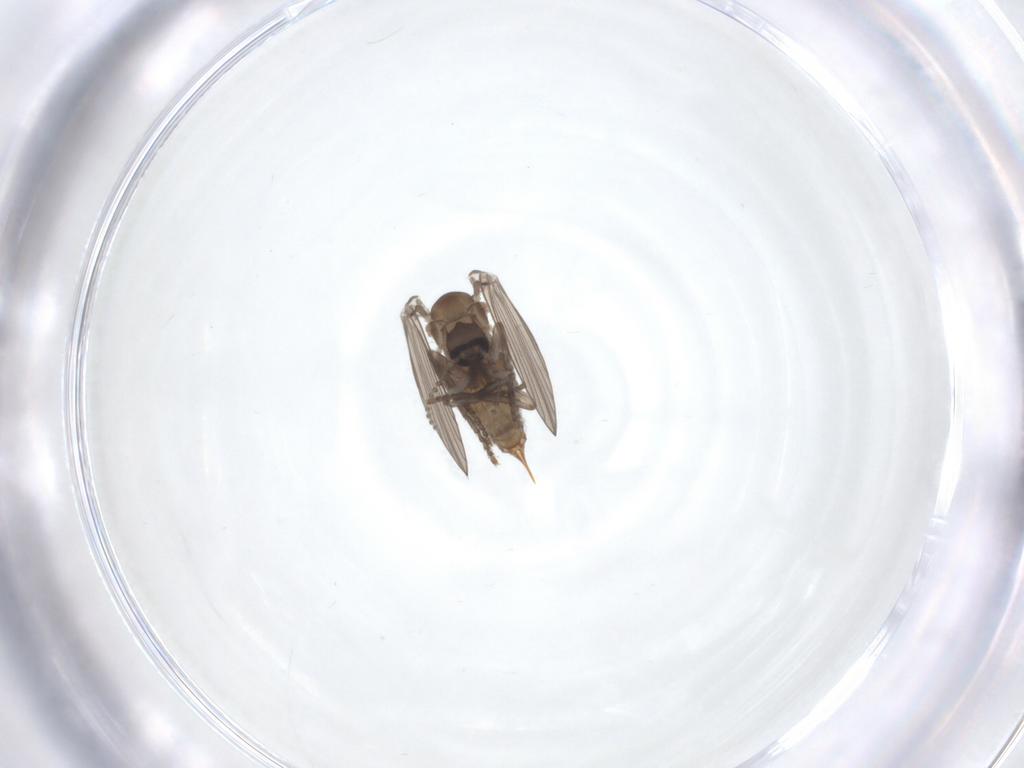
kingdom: Animalia
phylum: Arthropoda
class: Insecta
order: Diptera
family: Psychodidae
